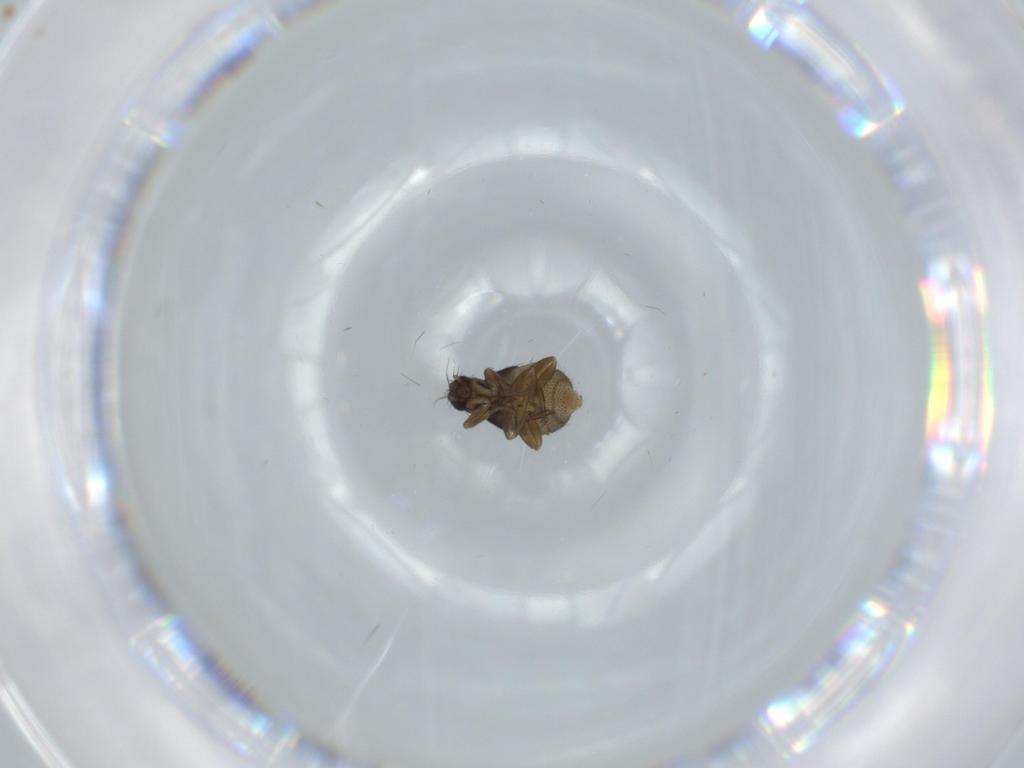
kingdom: Animalia
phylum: Arthropoda
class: Insecta
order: Diptera
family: Phoridae
